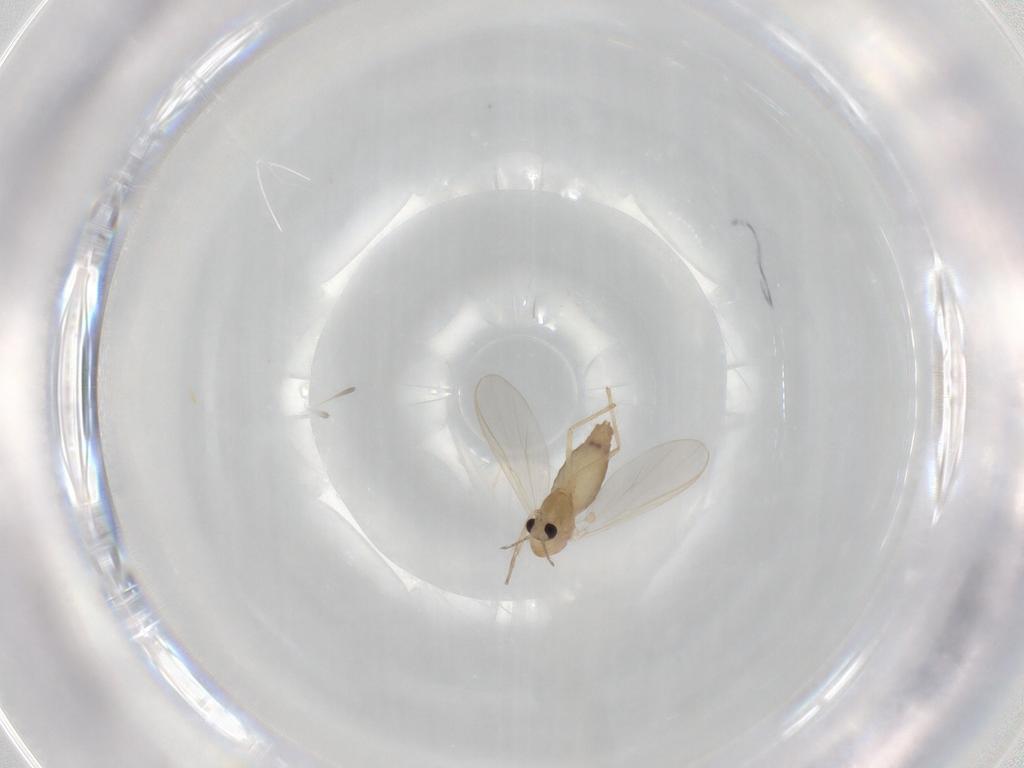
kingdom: Animalia
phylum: Arthropoda
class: Insecta
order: Diptera
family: Chironomidae
